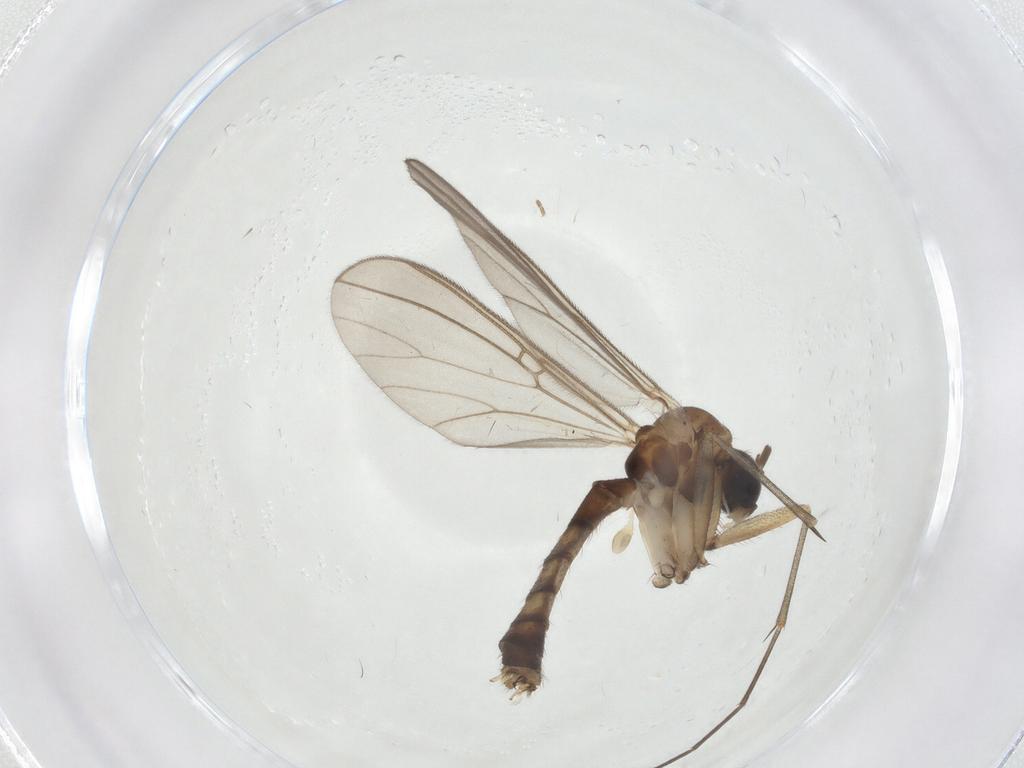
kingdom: Animalia
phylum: Arthropoda
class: Insecta
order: Diptera
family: Mycetophilidae
